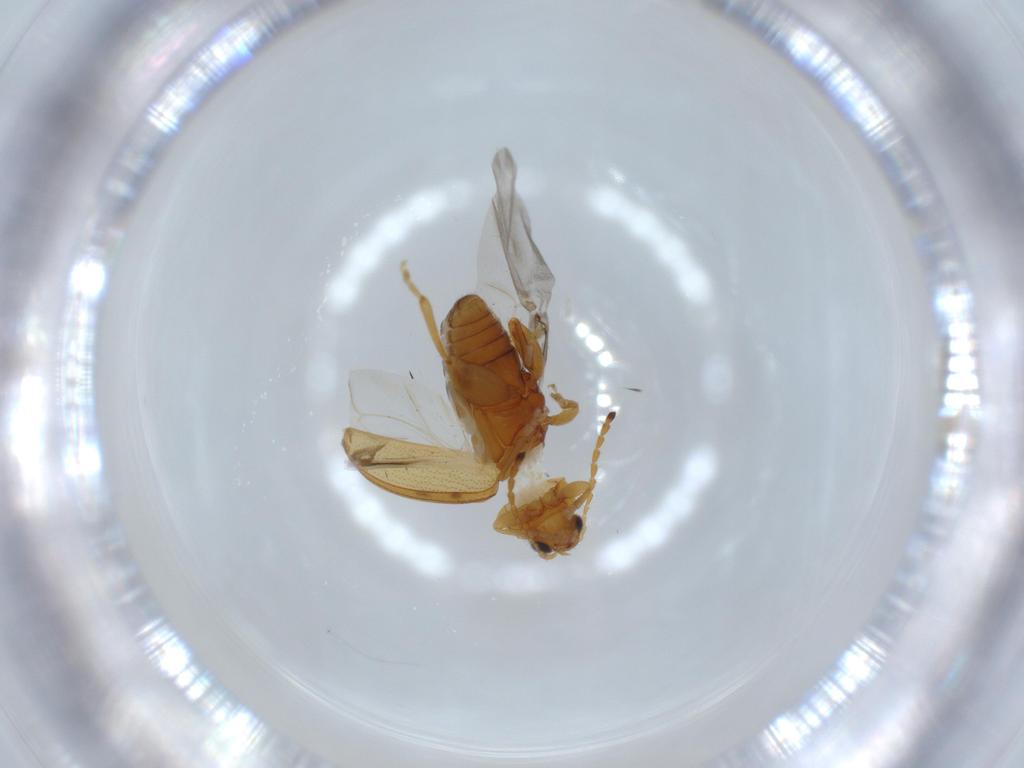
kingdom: Animalia
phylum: Arthropoda
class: Insecta
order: Coleoptera
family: Chrysomelidae
